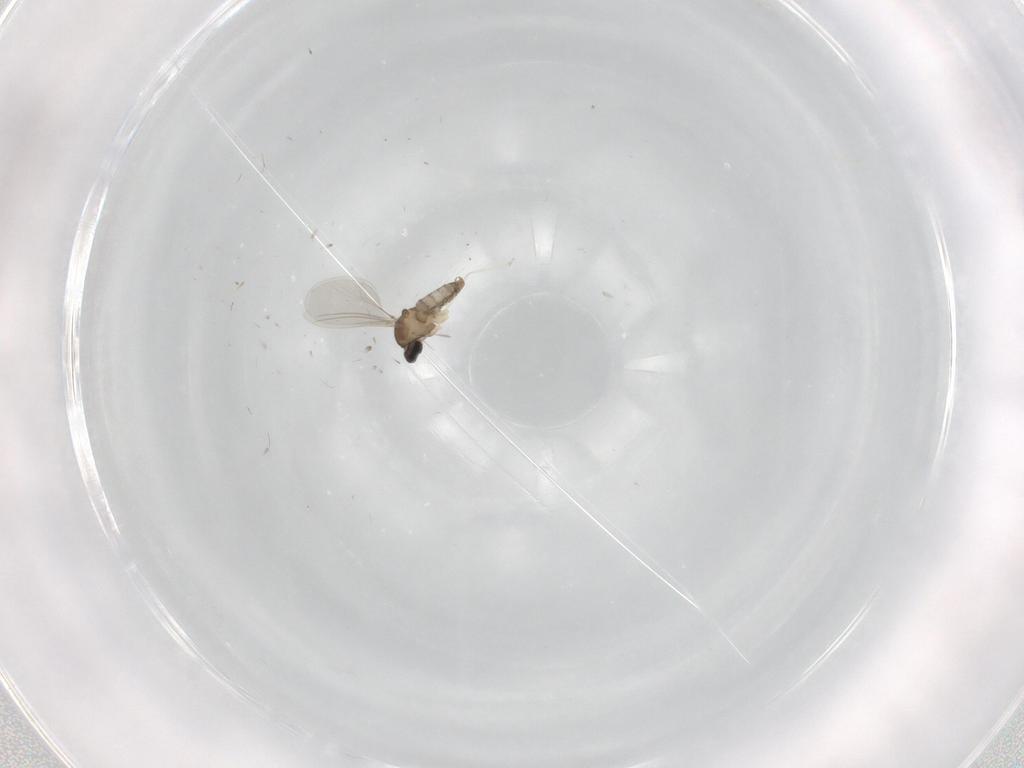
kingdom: Animalia
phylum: Arthropoda
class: Insecta
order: Diptera
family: Cecidomyiidae
